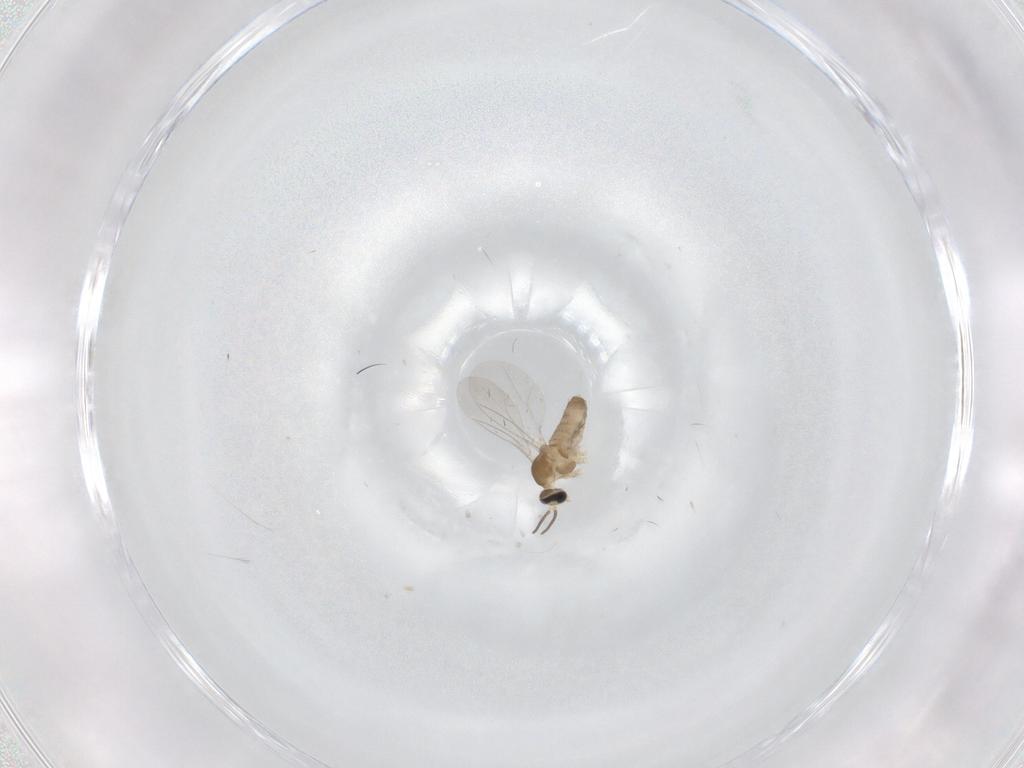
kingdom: Animalia
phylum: Arthropoda
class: Insecta
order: Diptera
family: Cecidomyiidae
